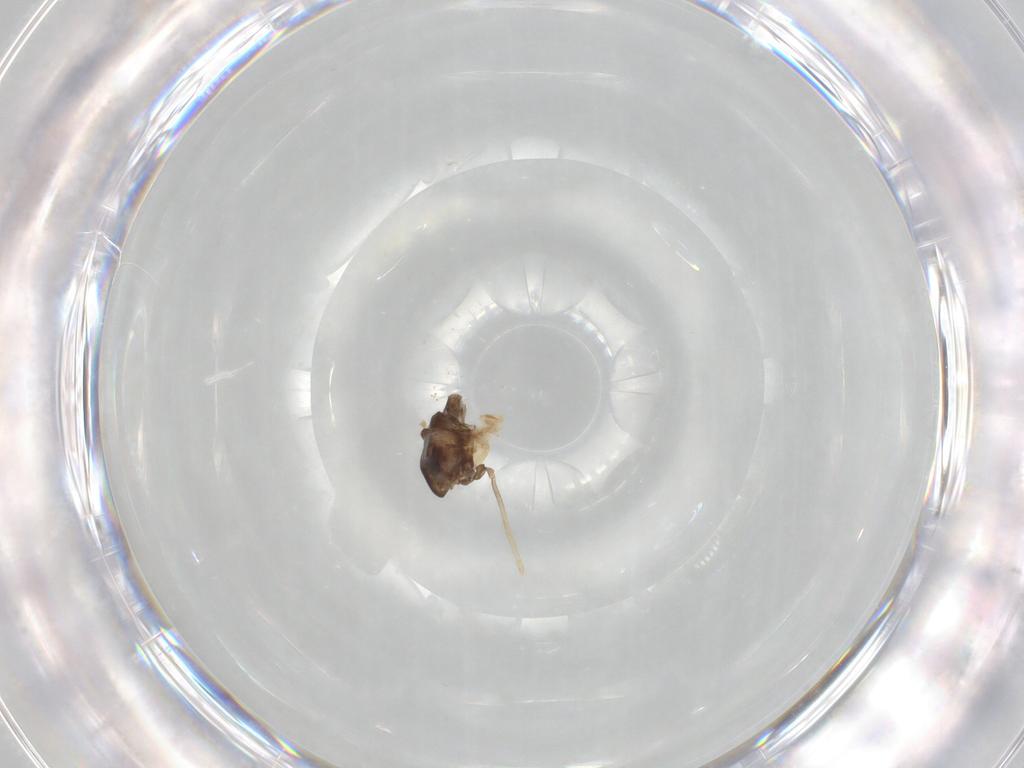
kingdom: Animalia
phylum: Arthropoda
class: Insecta
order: Diptera
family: Chironomidae
